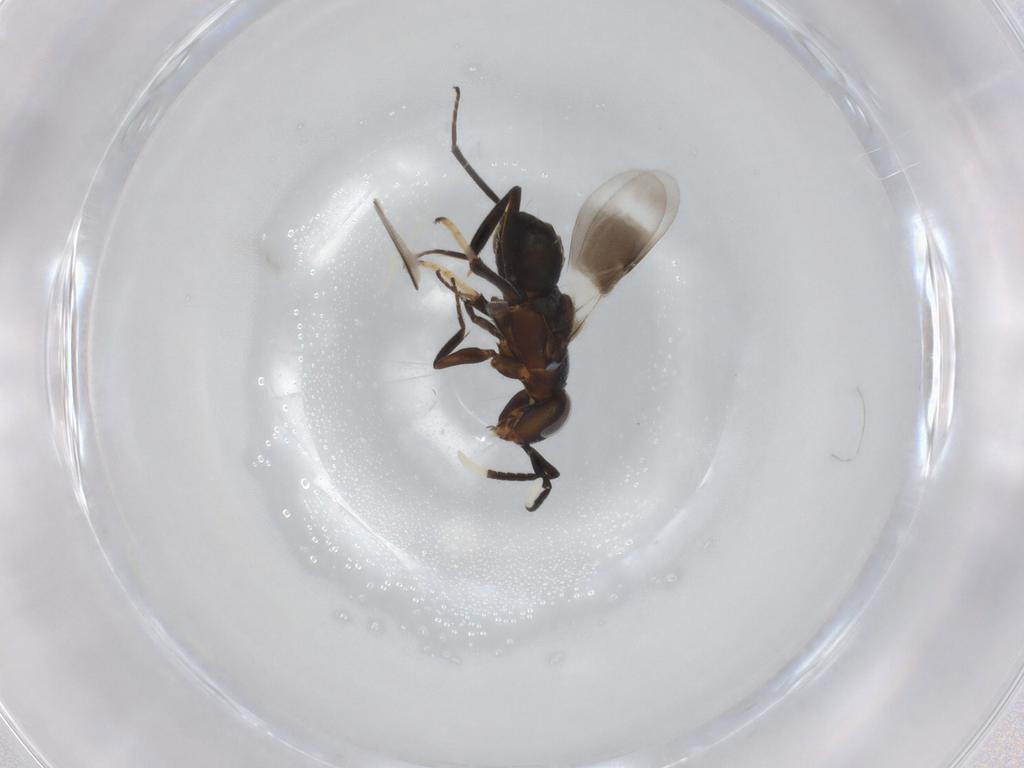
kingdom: Animalia
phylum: Arthropoda
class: Insecta
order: Hymenoptera
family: Encyrtidae
